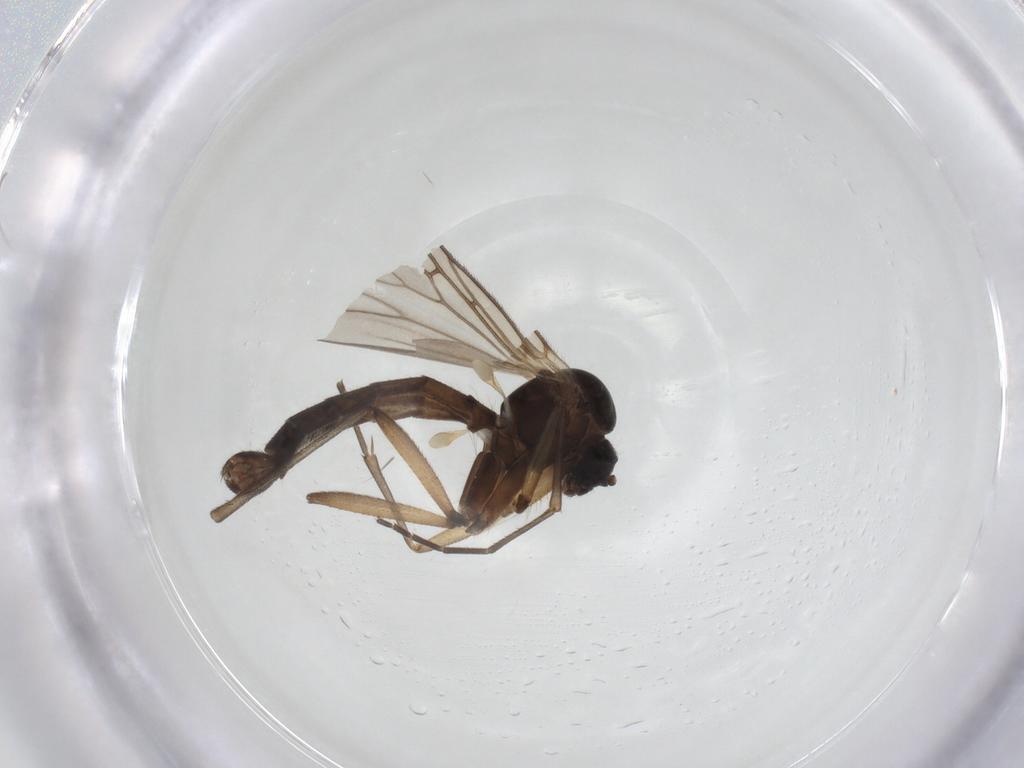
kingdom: Animalia
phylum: Arthropoda
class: Insecta
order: Diptera
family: Mycetophilidae
